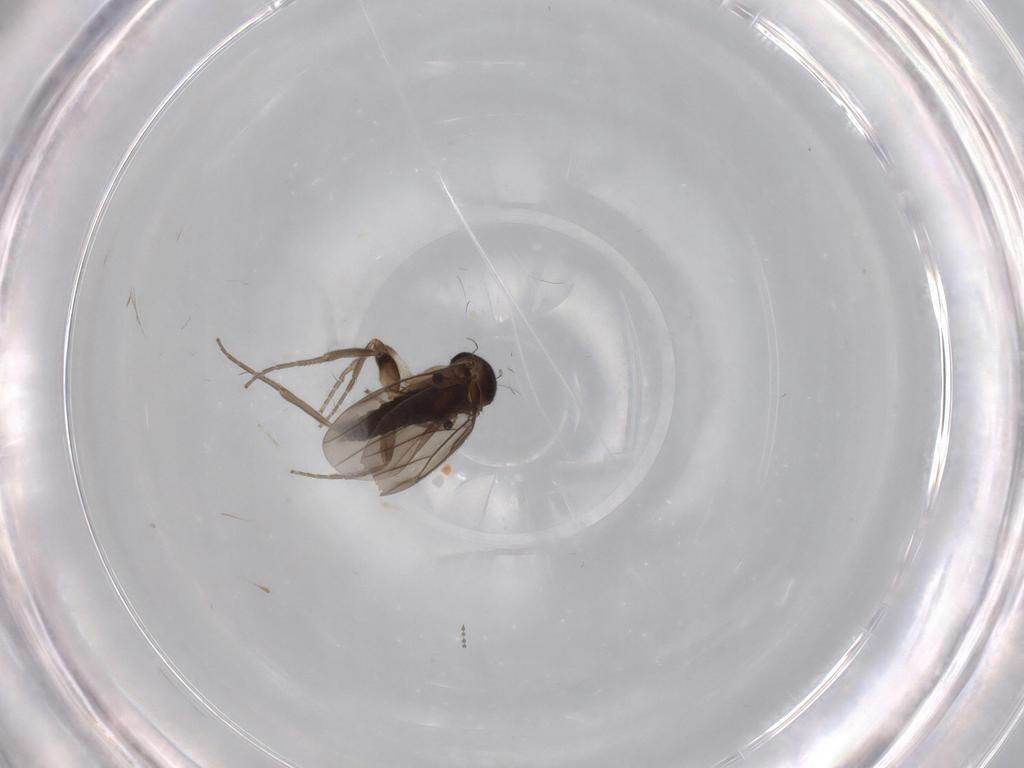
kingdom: Animalia
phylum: Arthropoda
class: Insecta
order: Diptera
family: Cecidomyiidae
